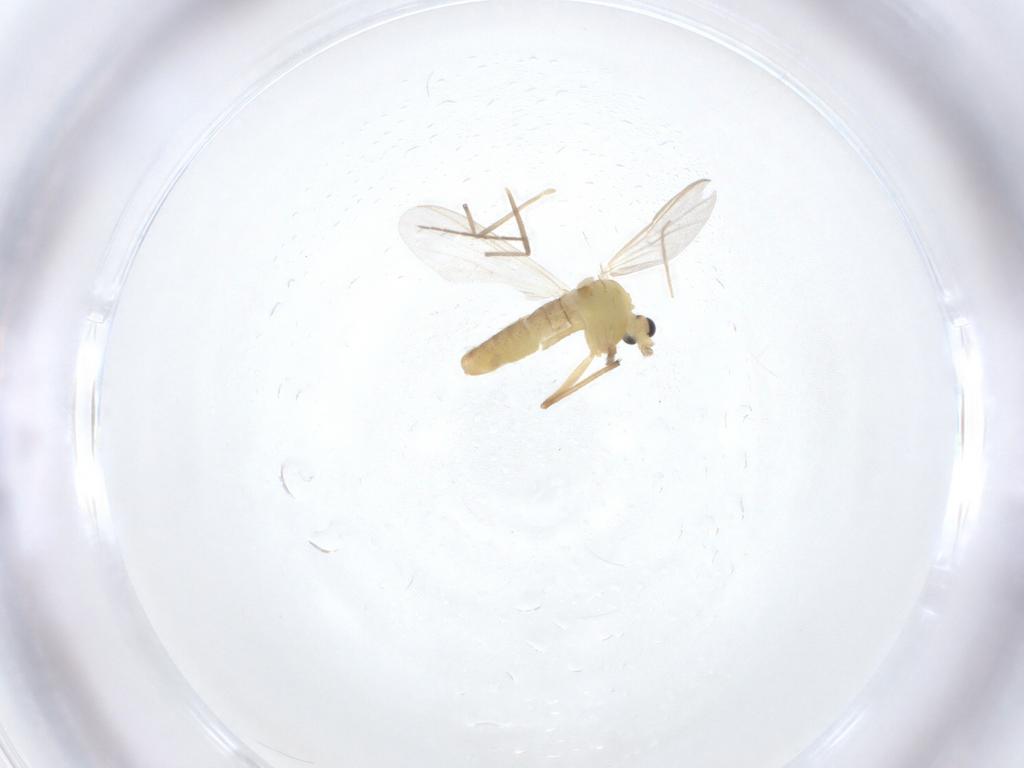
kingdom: Animalia
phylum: Arthropoda
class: Insecta
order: Diptera
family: Chironomidae
